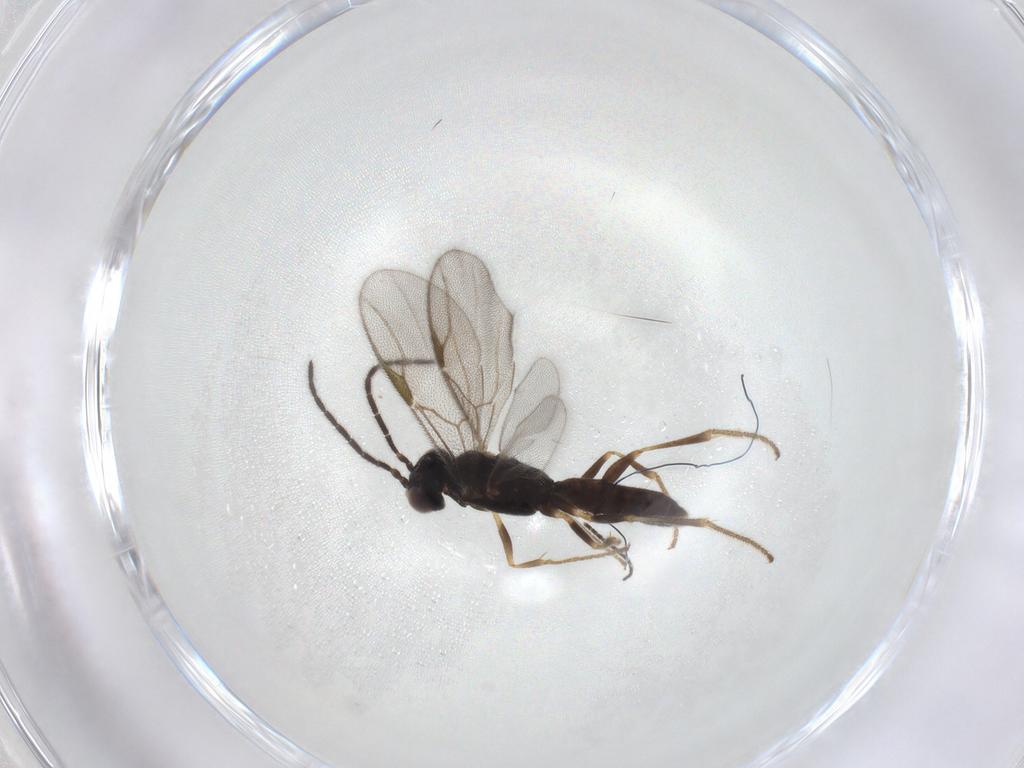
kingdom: Animalia
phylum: Arthropoda
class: Insecta
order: Hymenoptera
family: Dryinidae
